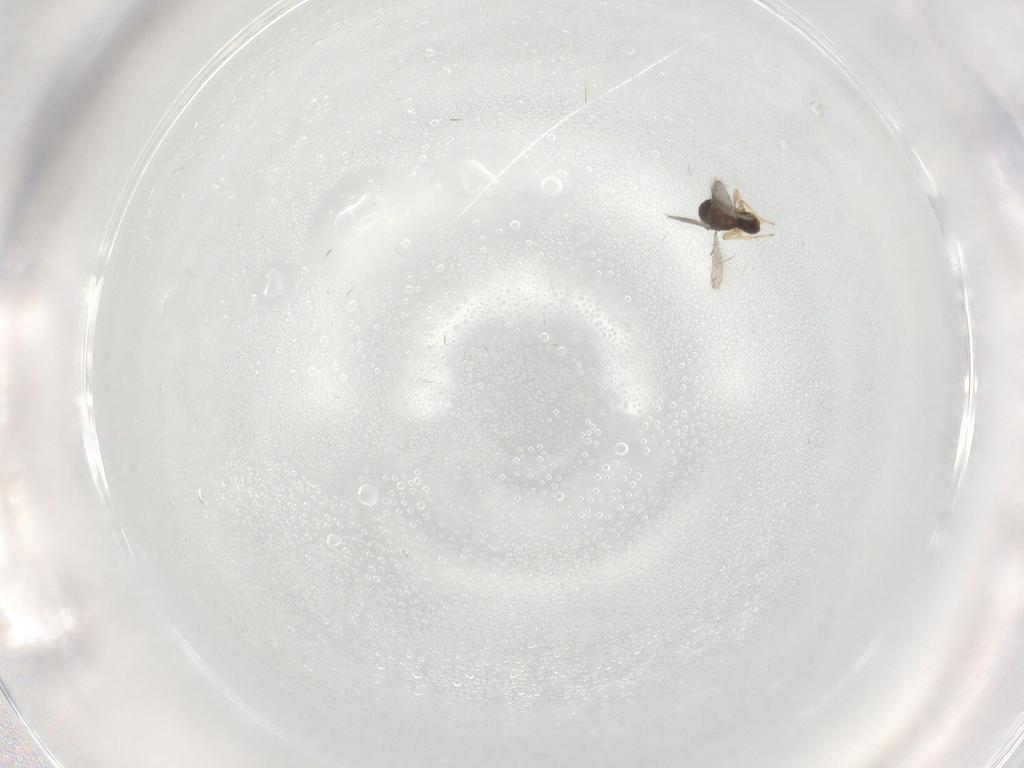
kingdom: Animalia
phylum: Arthropoda
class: Insecta
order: Hymenoptera
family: Scelionidae
